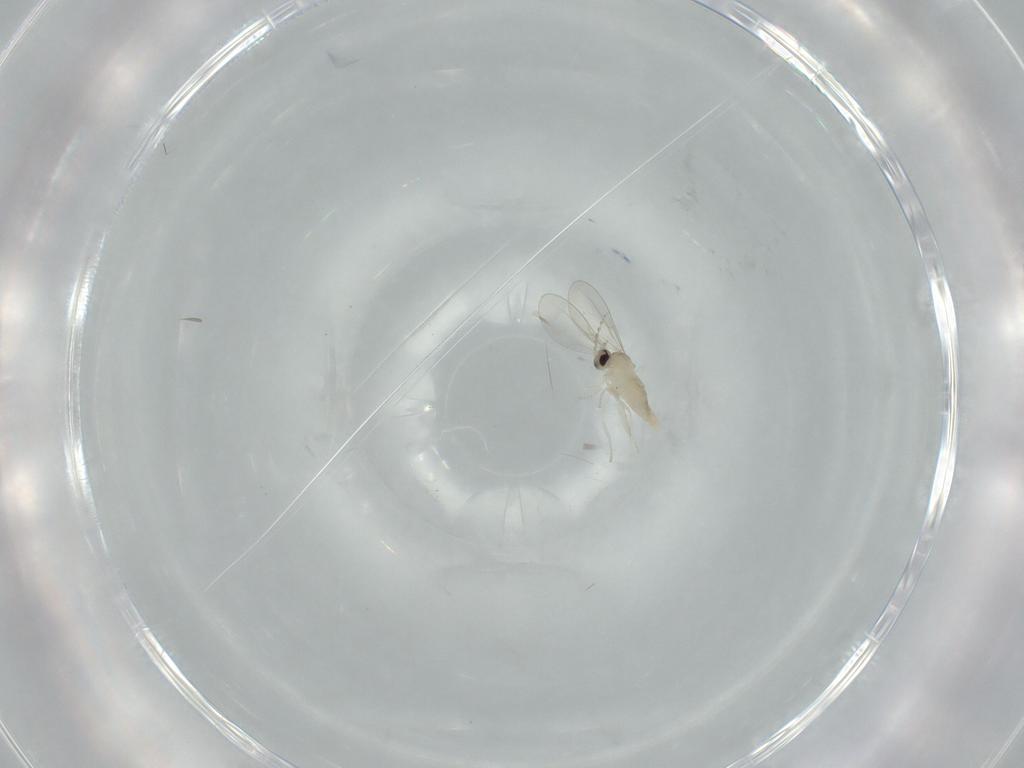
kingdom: Animalia
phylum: Arthropoda
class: Insecta
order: Diptera
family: Cecidomyiidae
